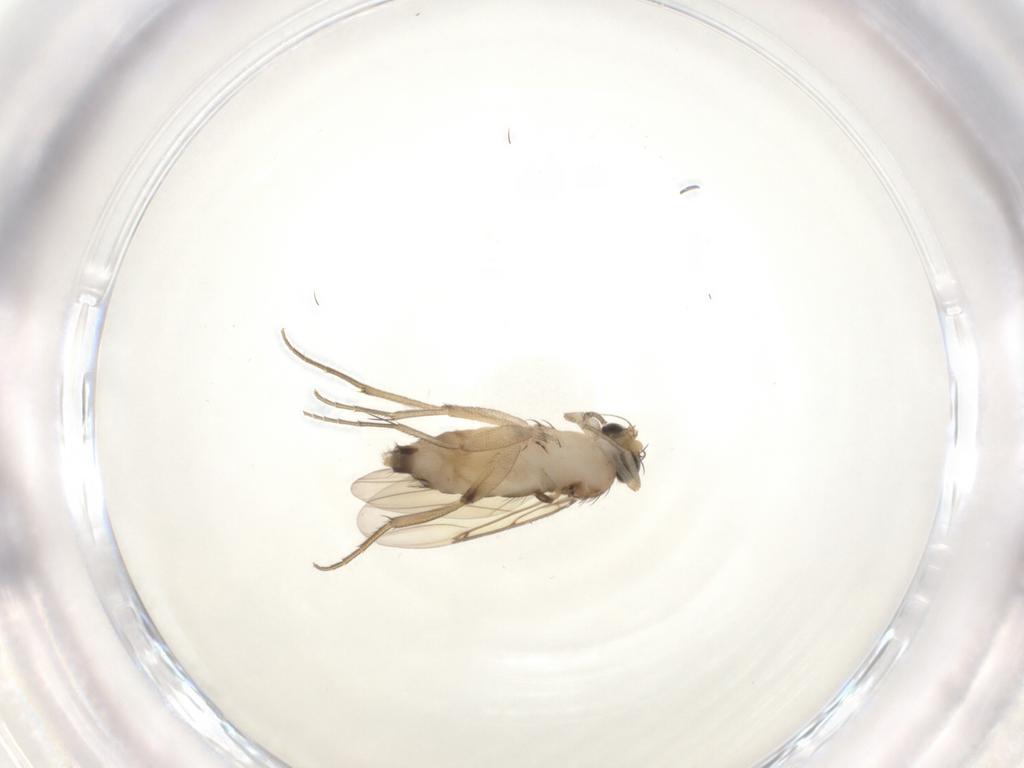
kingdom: Animalia
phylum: Arthropoda
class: Insecta
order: Diptera
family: Phoridae
